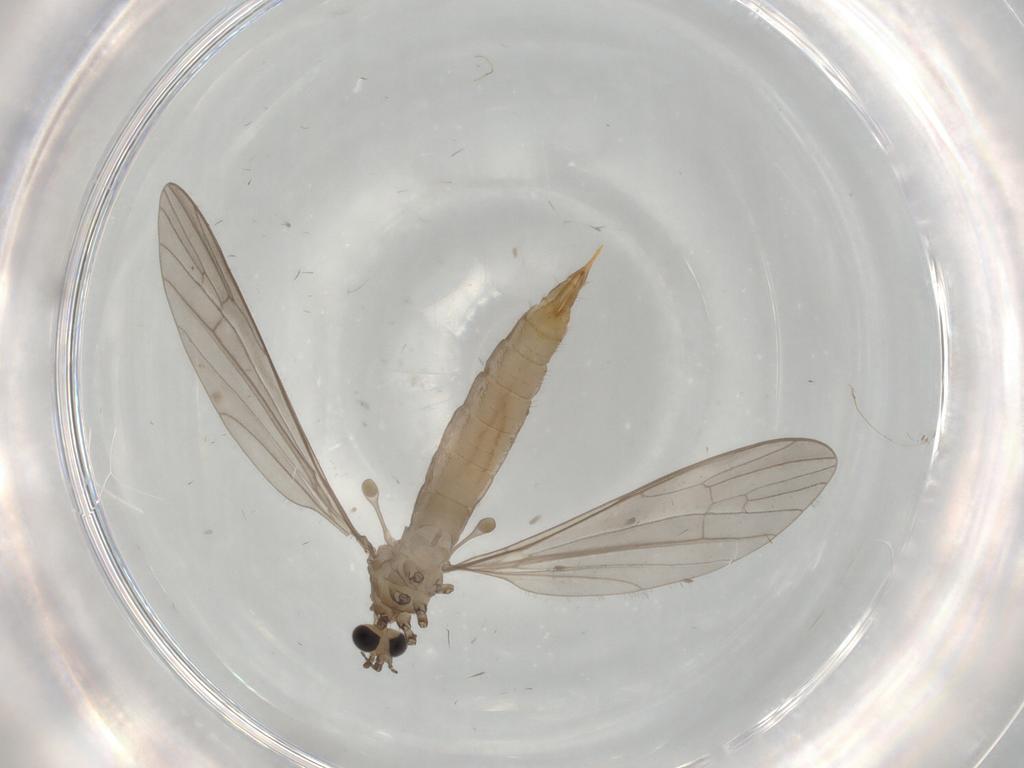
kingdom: Animalia
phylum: Arthropoda
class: Insecta
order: Diptera
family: Limoniidae
